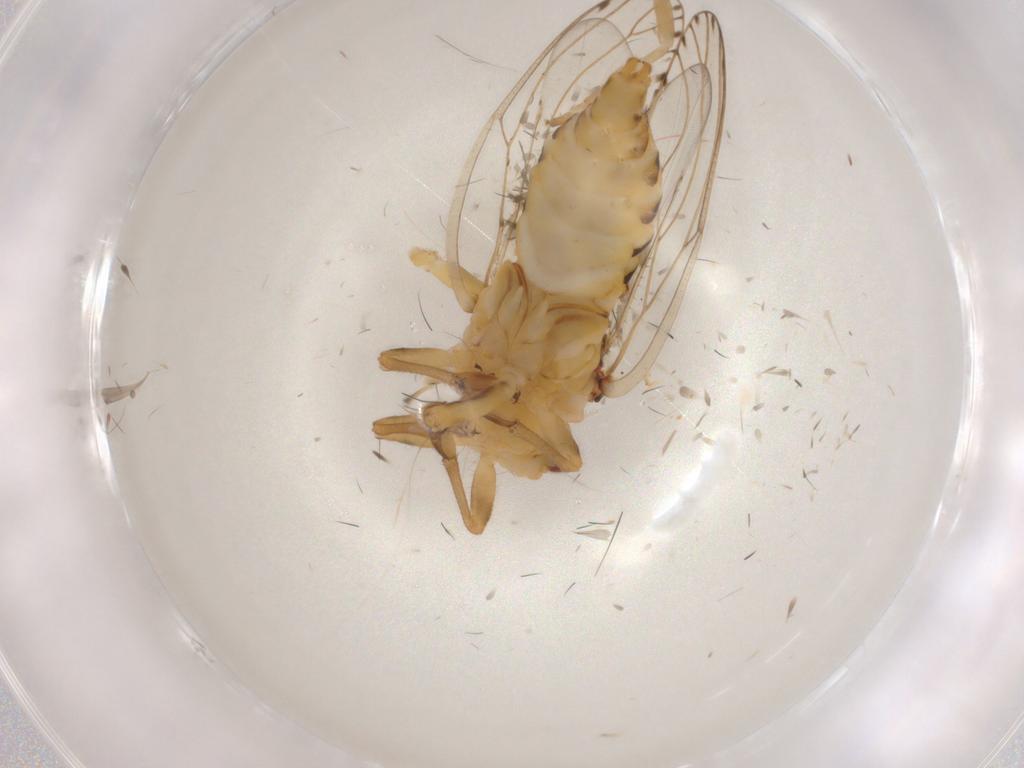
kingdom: Animalia
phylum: Arthropoda
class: Insecta
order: Hemiptera
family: Psylloidea_incertae_sedis
